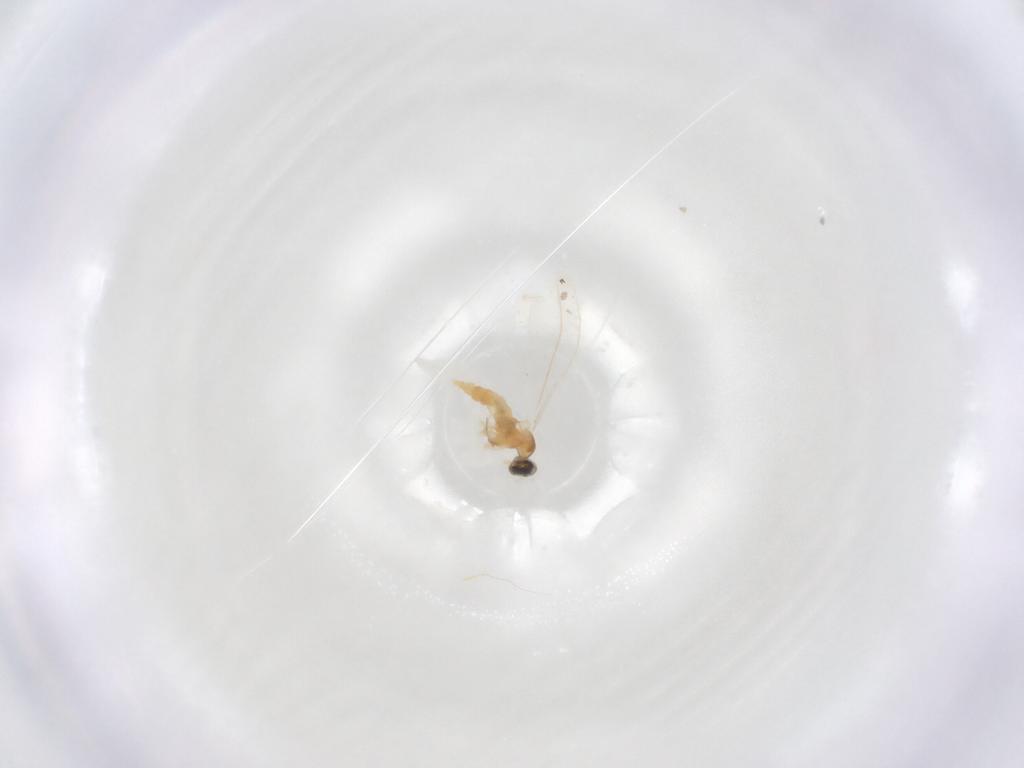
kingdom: Animalia
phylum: Arthropoda
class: Insecta
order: Diptera
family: Cecidomyiidae
